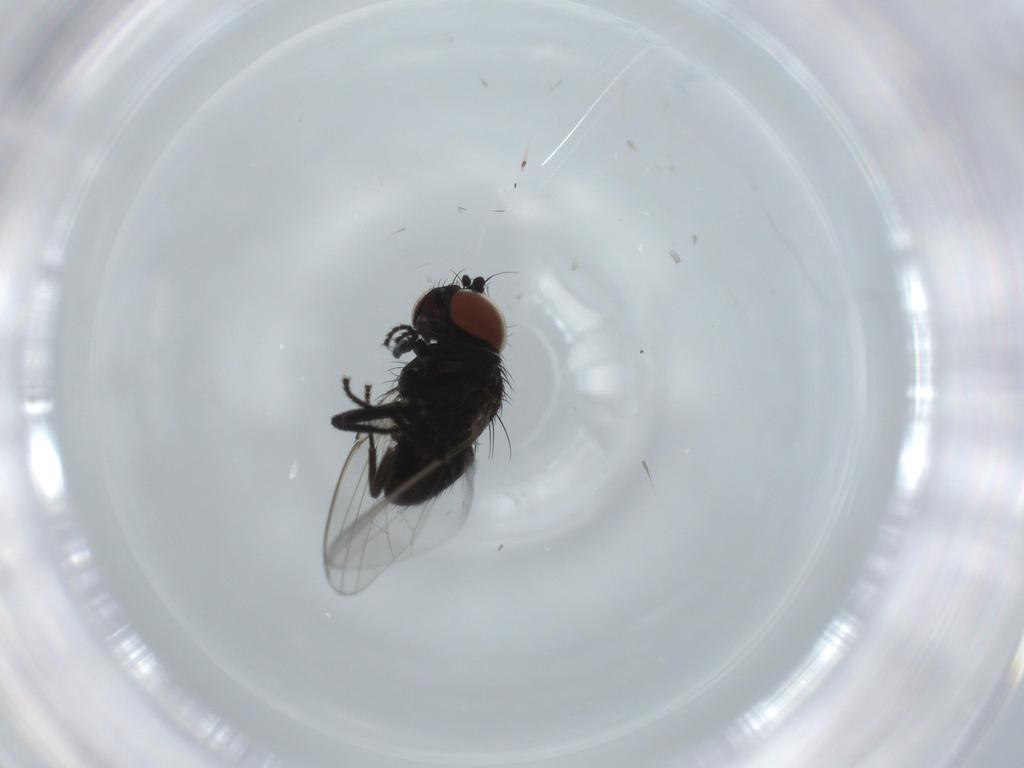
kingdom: Animalia
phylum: Arthropoda
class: Insecta
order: Diptera
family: Milichiidae
